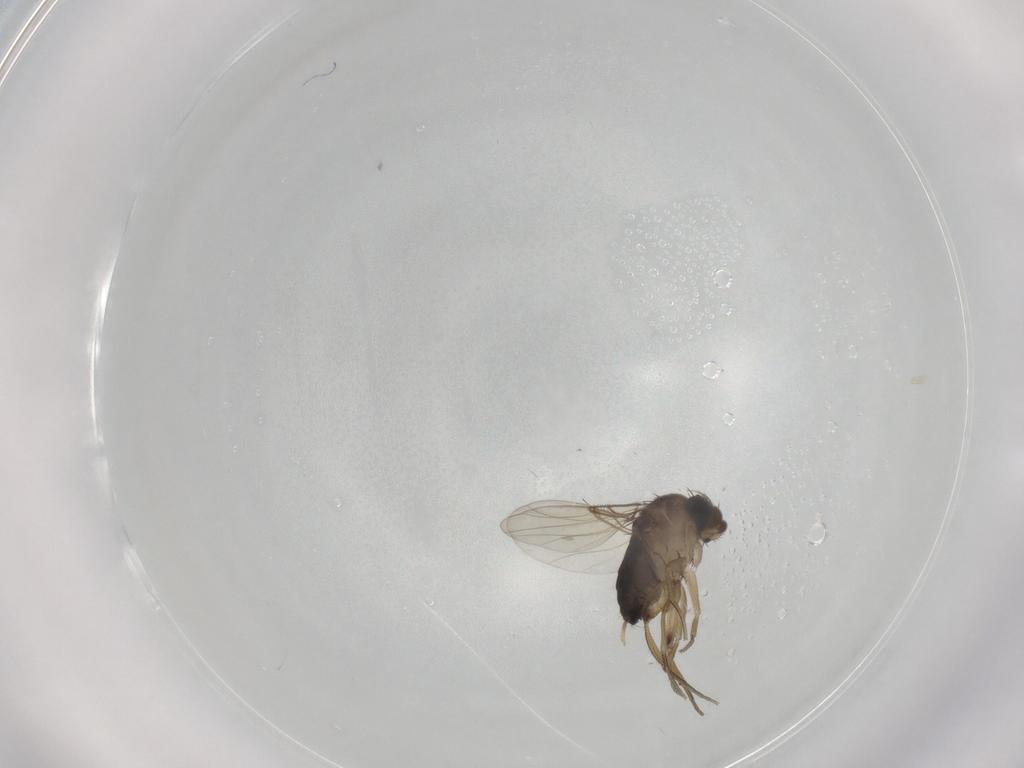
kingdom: Animalia
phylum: Arthropoda
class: Insecta
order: Diptera
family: Phoridae
